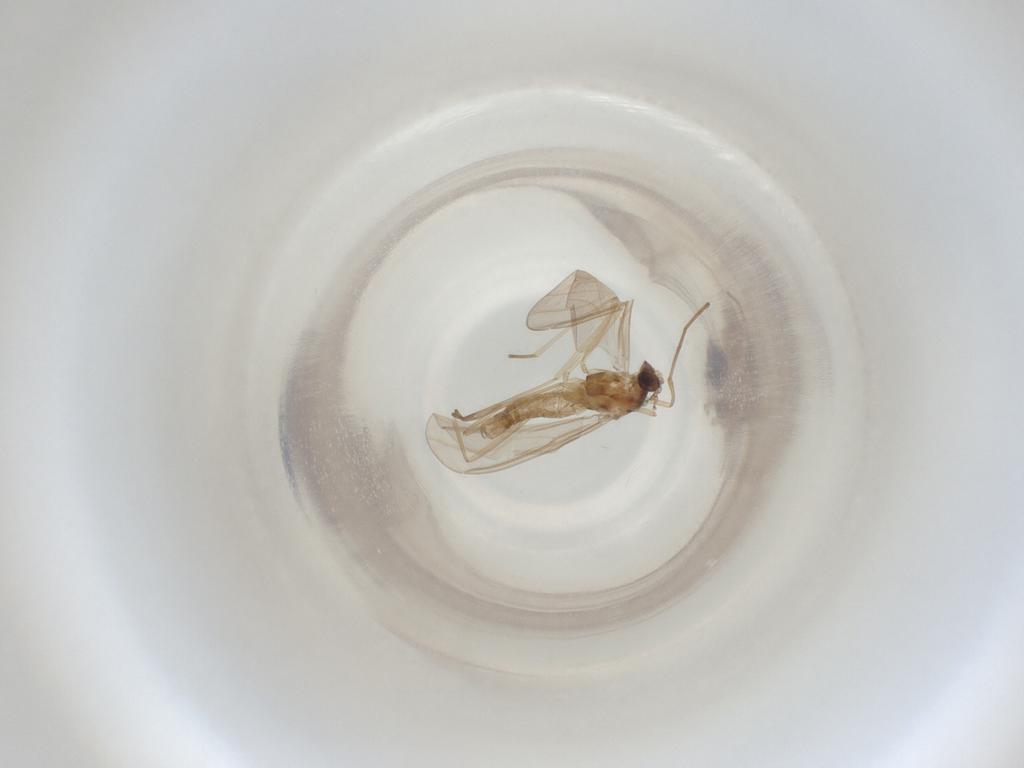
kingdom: Animalia
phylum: Arthropoda
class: Insecta
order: Diptera
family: Cecidomyiidae
